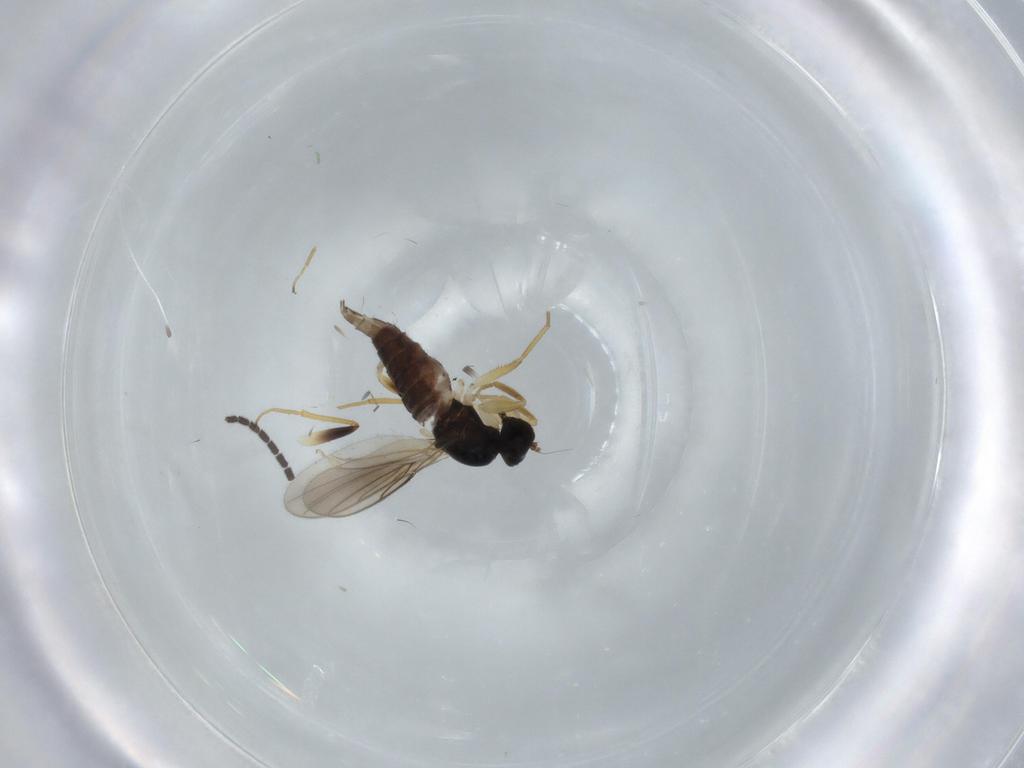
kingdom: Animalia
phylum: Arthropoda
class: Insecta
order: Diptera
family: Hybotidae
